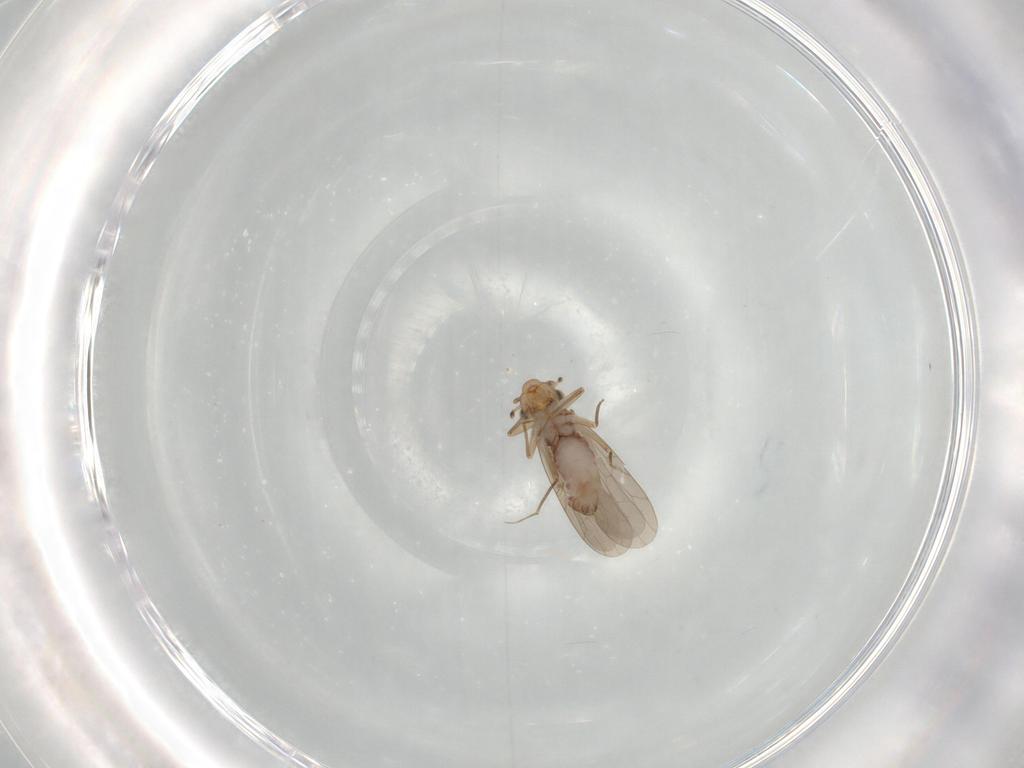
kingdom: Animalia
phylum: Arthropoda
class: Insecta
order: Psocodea
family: Lepidopsocidae
